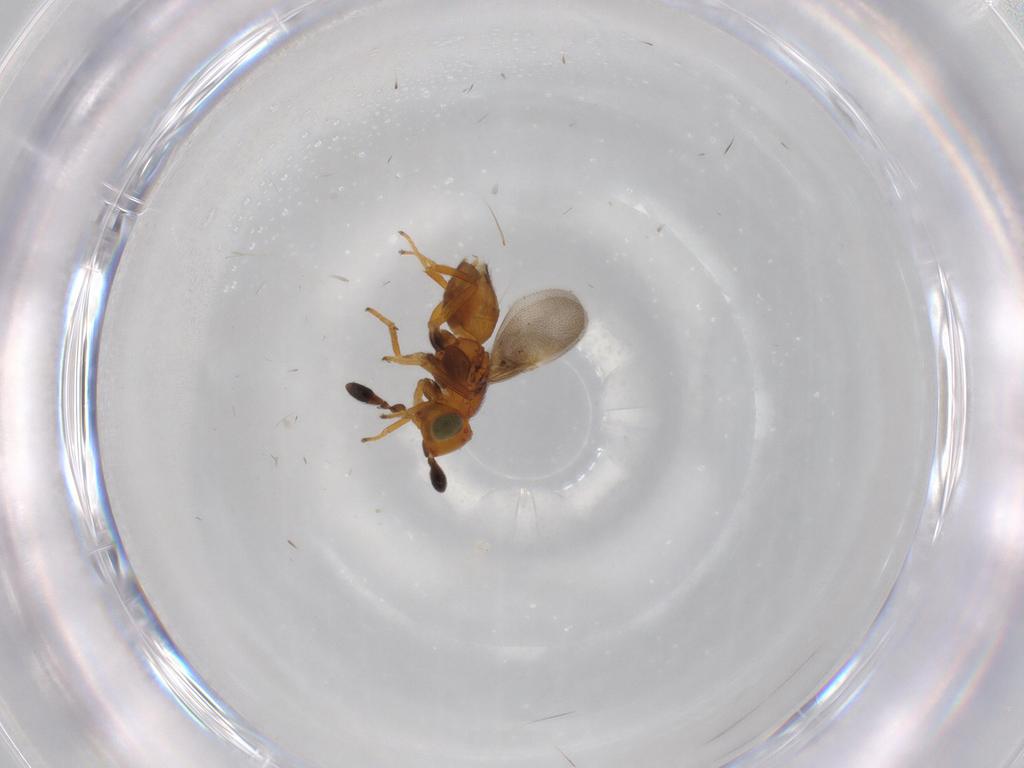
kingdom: Animalia
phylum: Arthropoda
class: Insecta
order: Hymenoptera
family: Encyrtidae
